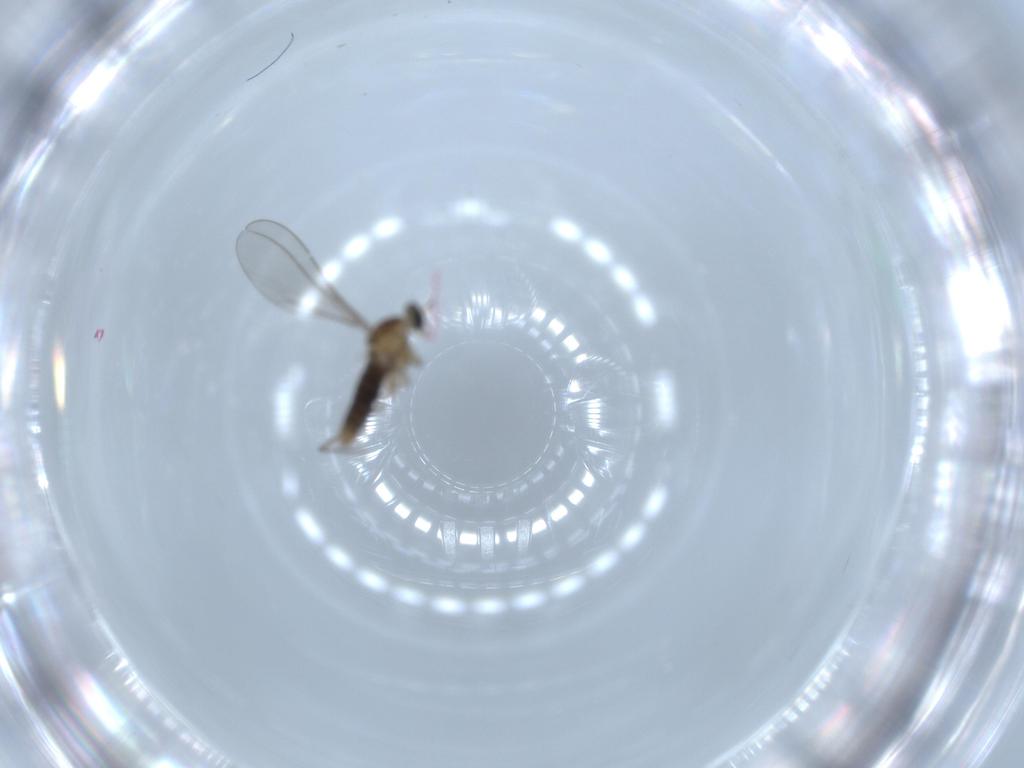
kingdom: Animalia
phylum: Arthropoda
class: Insecta
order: Diptera
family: Cecidomyiidae
